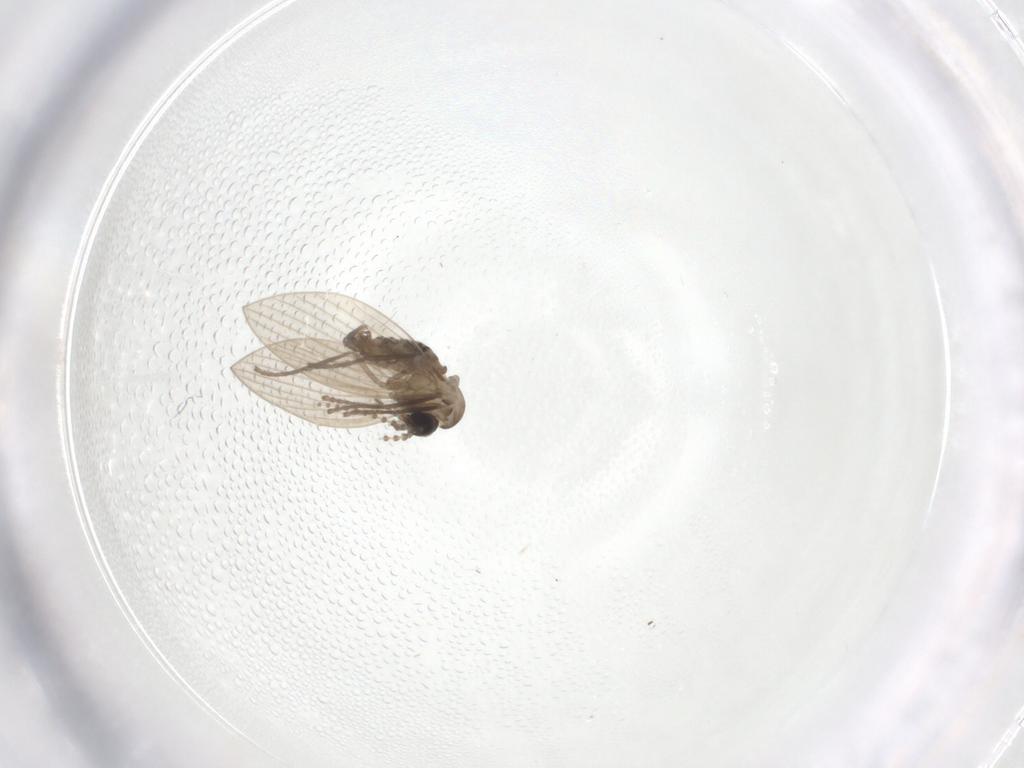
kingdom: Animalia
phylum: Arthropoda
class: Insecta
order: Diptera
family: Psychodidae
